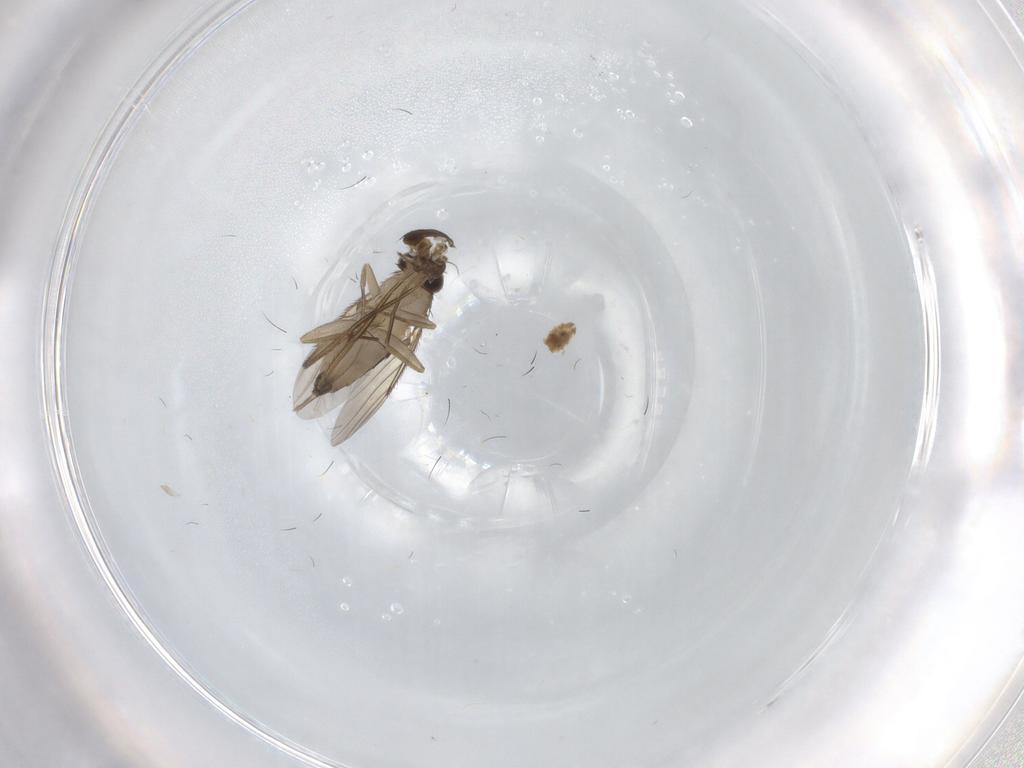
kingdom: Animalia
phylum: Arthropoda
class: Insecta
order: Diptera
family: Phoridae
